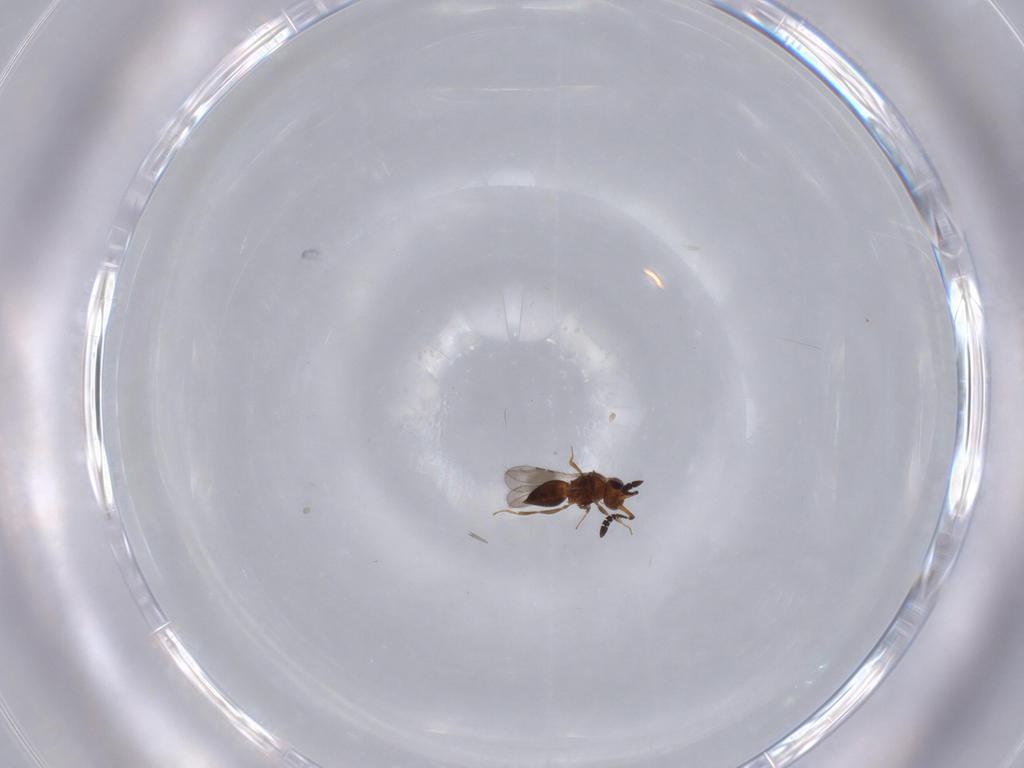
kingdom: Animalia
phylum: Arthropoda
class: Insecta
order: Hymenoptera
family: Ceraphronidae
